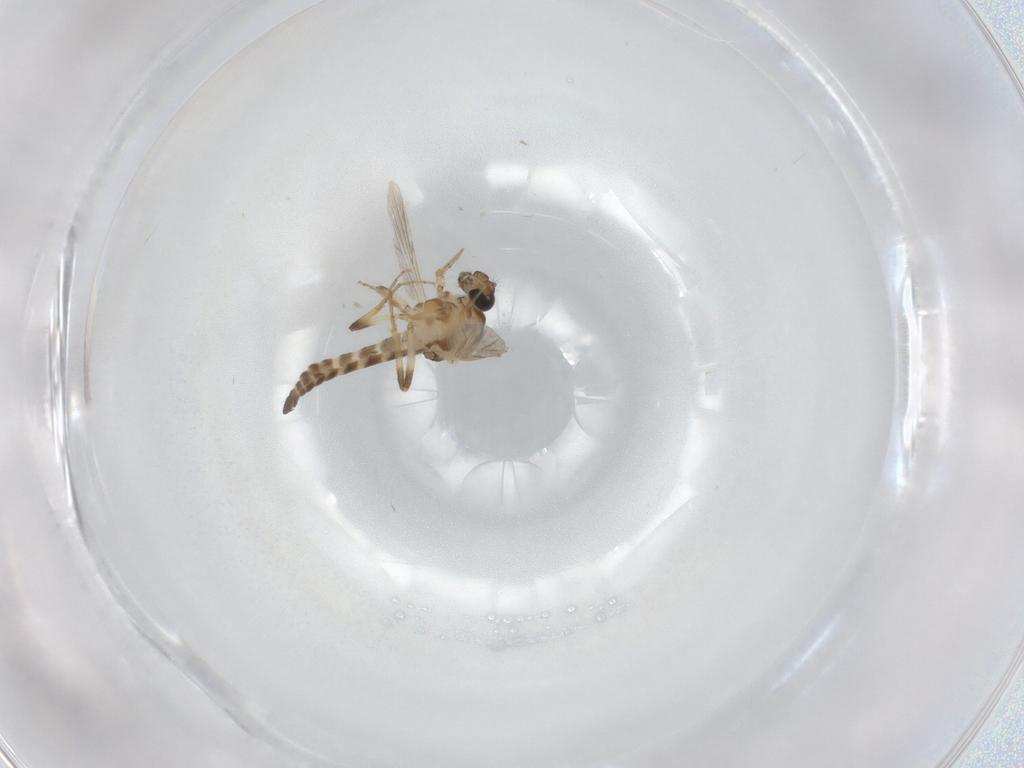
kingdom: Animalia
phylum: Arthropoda
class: Insecta
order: Diptera
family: Ceratopogonidae
